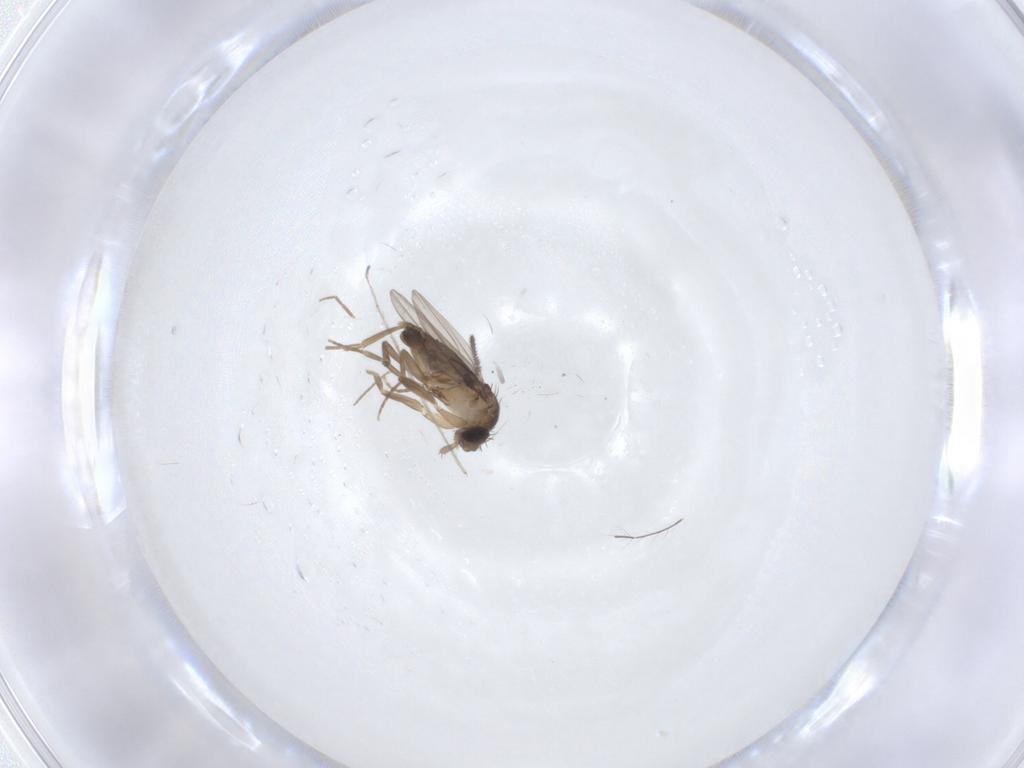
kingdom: Animalia
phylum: Arthropoda
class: Insecta
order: Diptera
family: Phoridae
